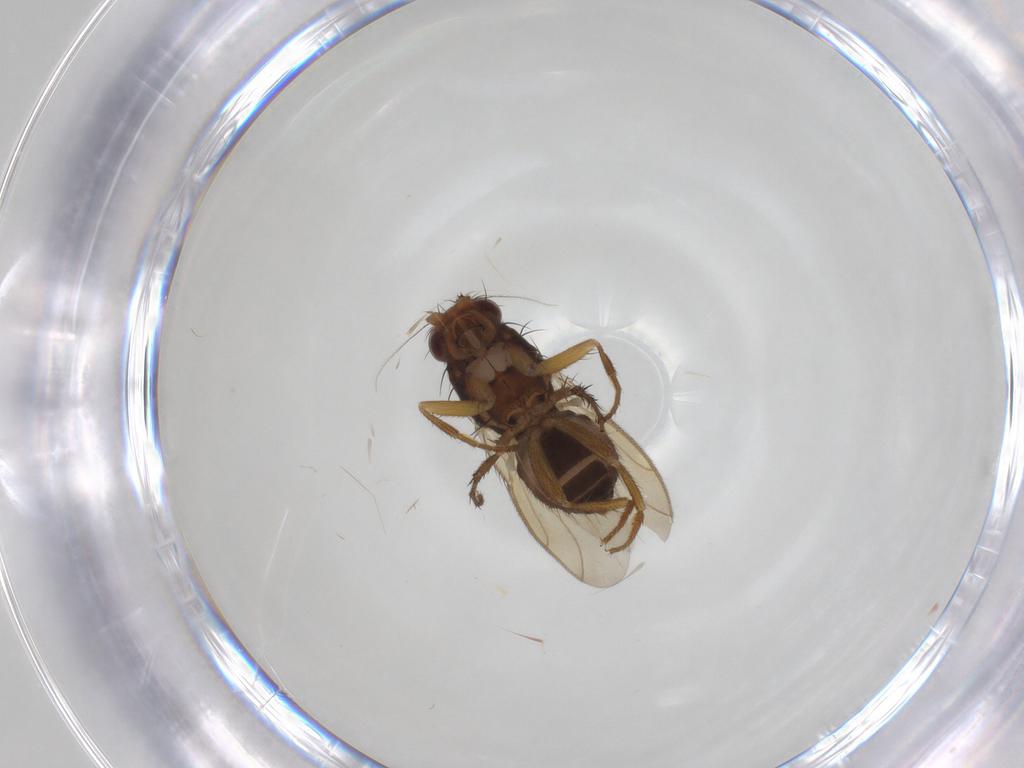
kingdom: Animalia
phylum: Arthropoda
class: Insecta
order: Diptera
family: Sphaeroceridae
